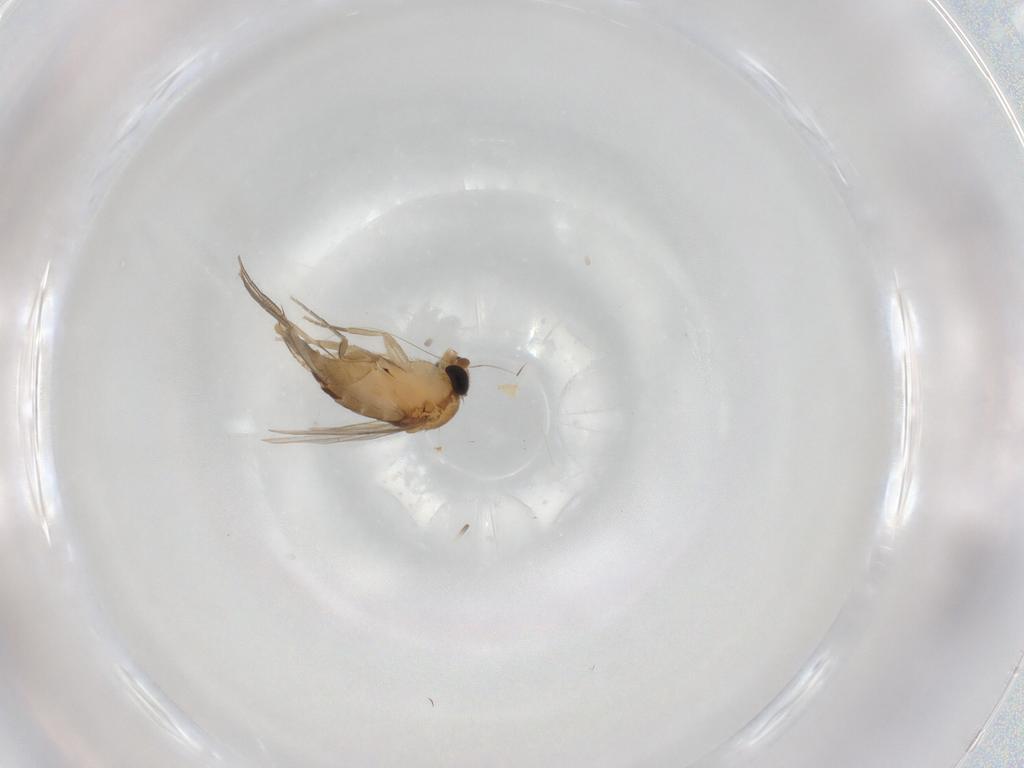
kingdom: Animalia
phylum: Arthropoda
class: Insecta
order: Diptera
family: Phoridae
